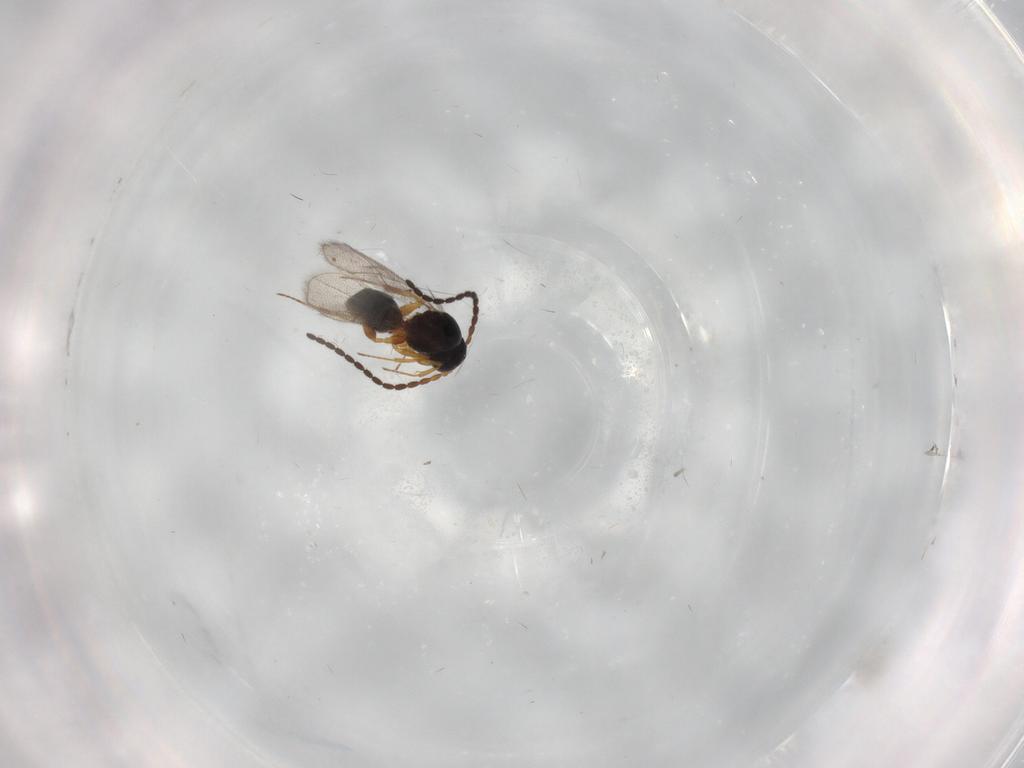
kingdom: Animalia
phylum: Arthropoda
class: Insecta
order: Hymenoptera
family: Figitidae
